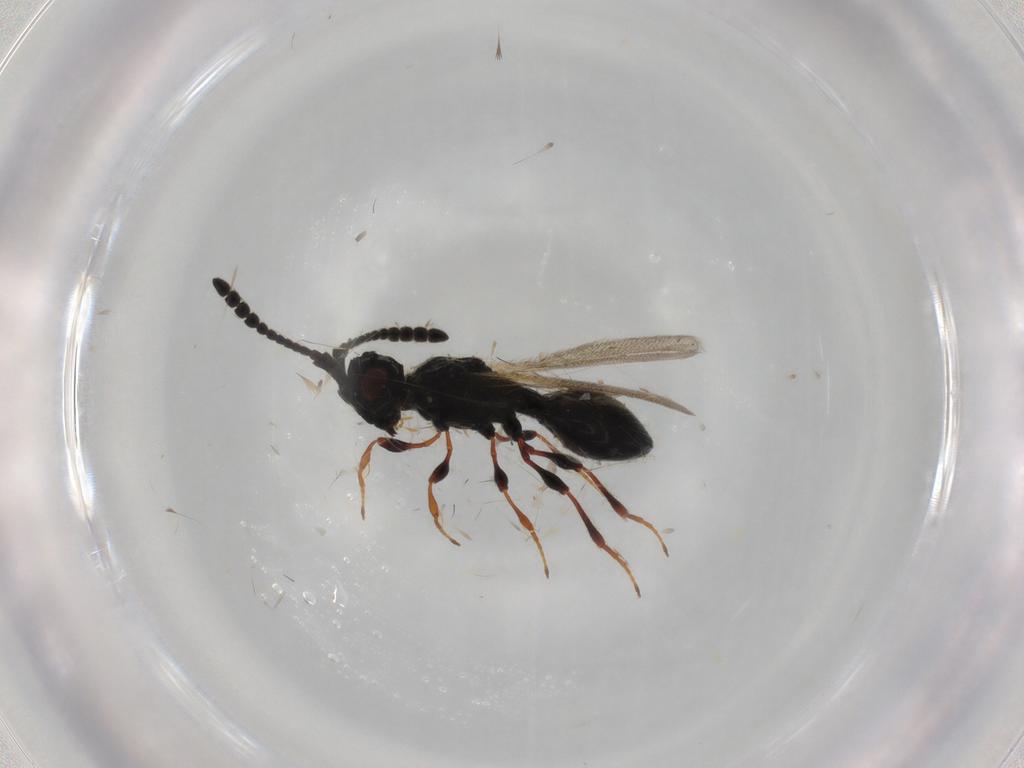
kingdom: Animalia
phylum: Arthropoda
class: Insecta
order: Hymenoptera
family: Diapriidae
